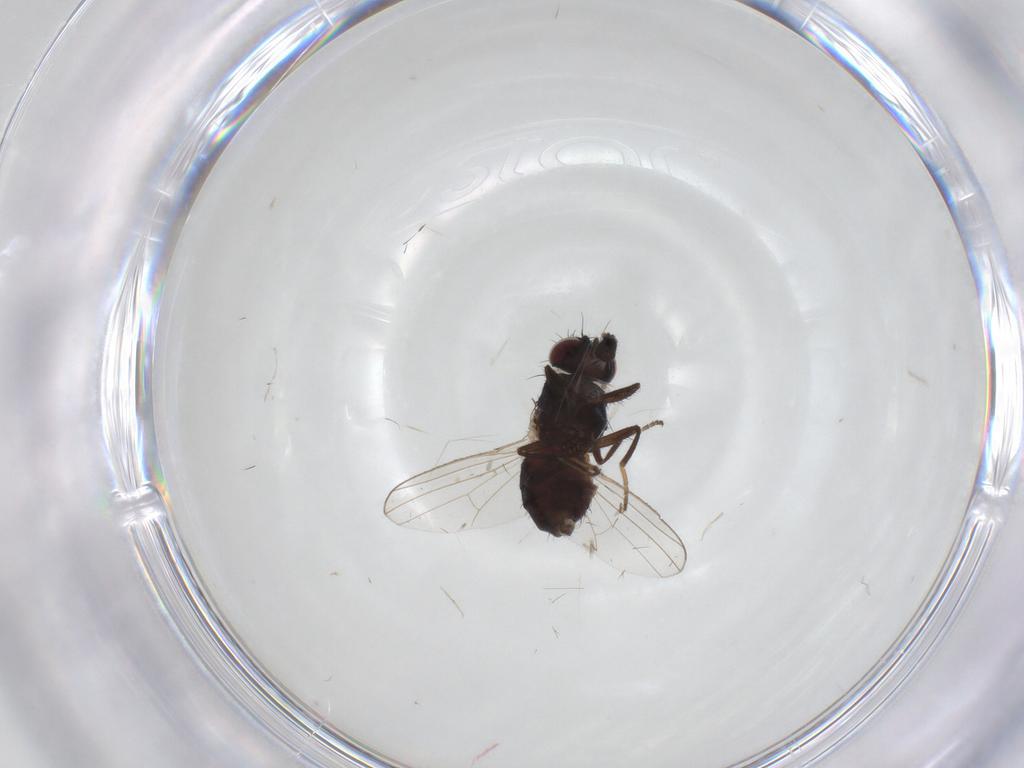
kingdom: Animalia
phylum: Arthropoda
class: Insecta
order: Diptera
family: Carnidae
